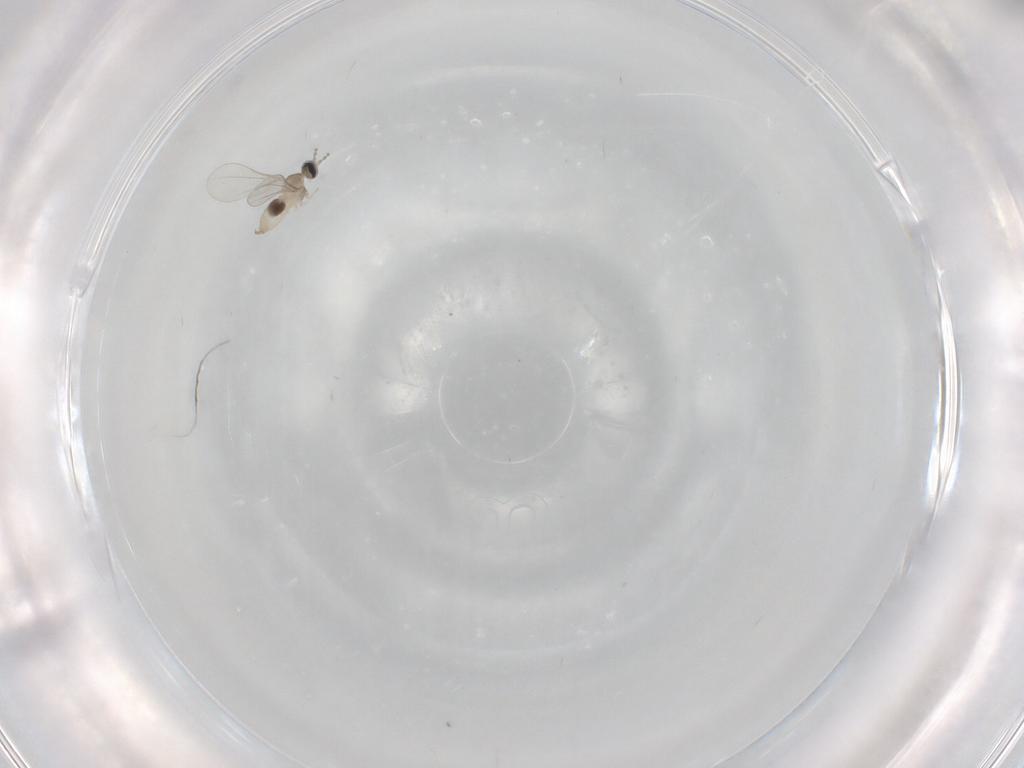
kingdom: Animalia
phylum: Arthropoda
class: Insecta
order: Diptera
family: Cecidomyiidae
